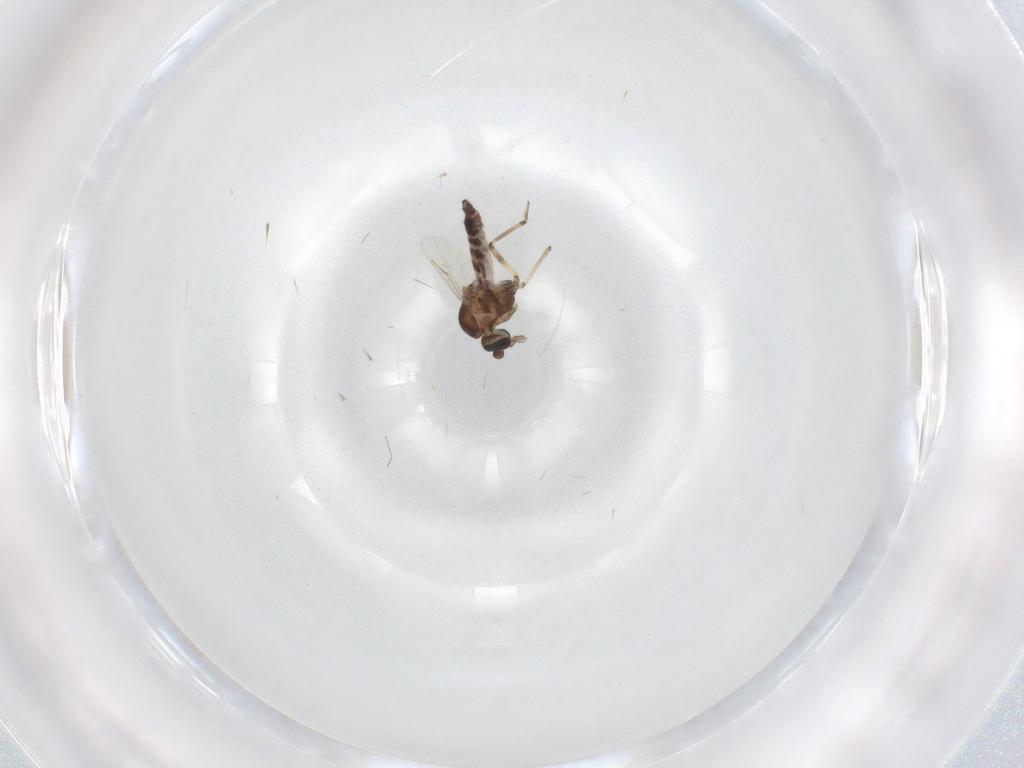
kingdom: Animalia
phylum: Arthropoda
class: Insecta
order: Diptera
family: Ceratopogonidae
